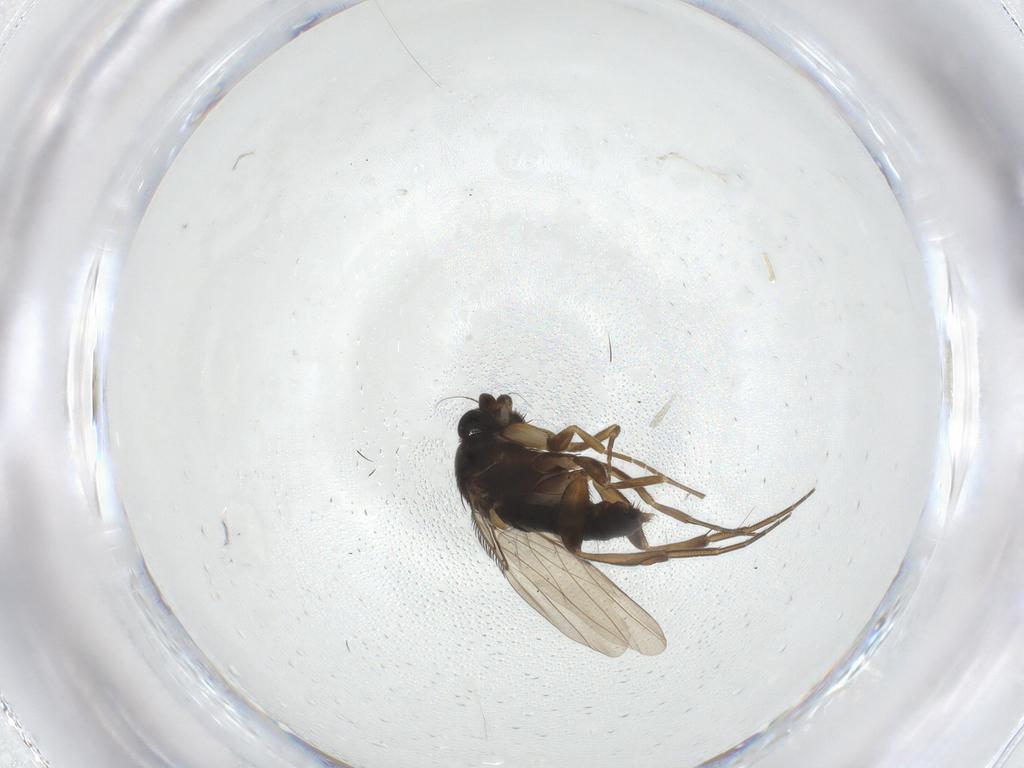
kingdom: Animalia
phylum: Arthropoda
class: Insecta
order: Diptera
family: Phoridae
